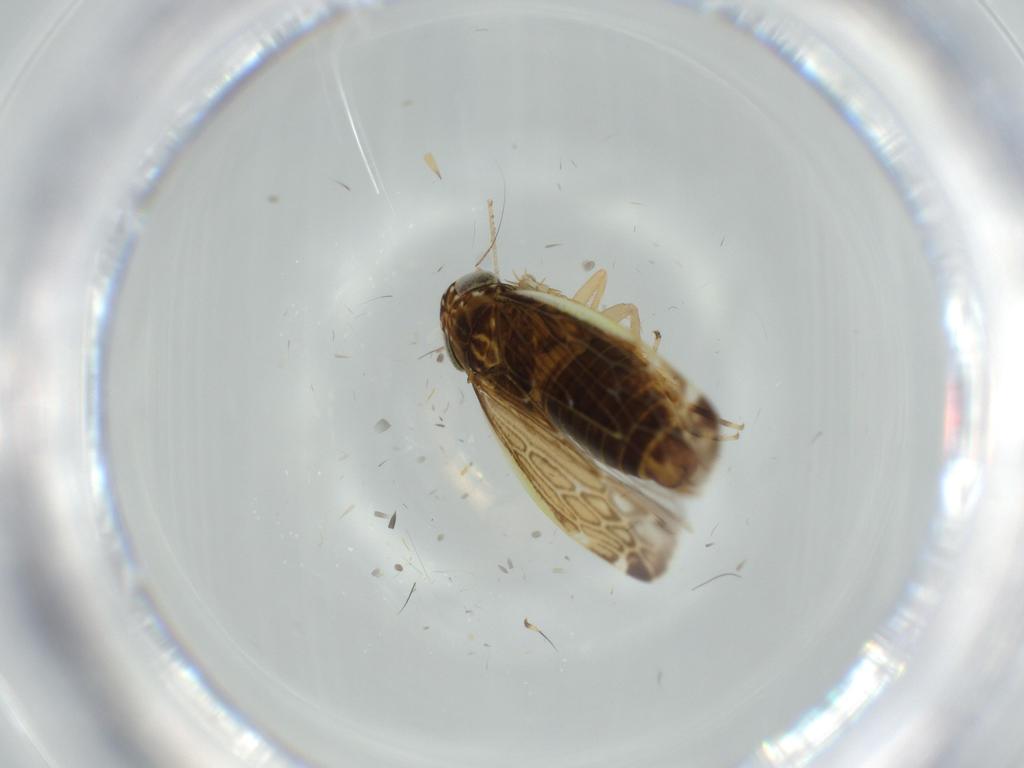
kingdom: Animalia
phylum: Arthropoda
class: Insecta
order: Hemiptera
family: Cicadellidae
